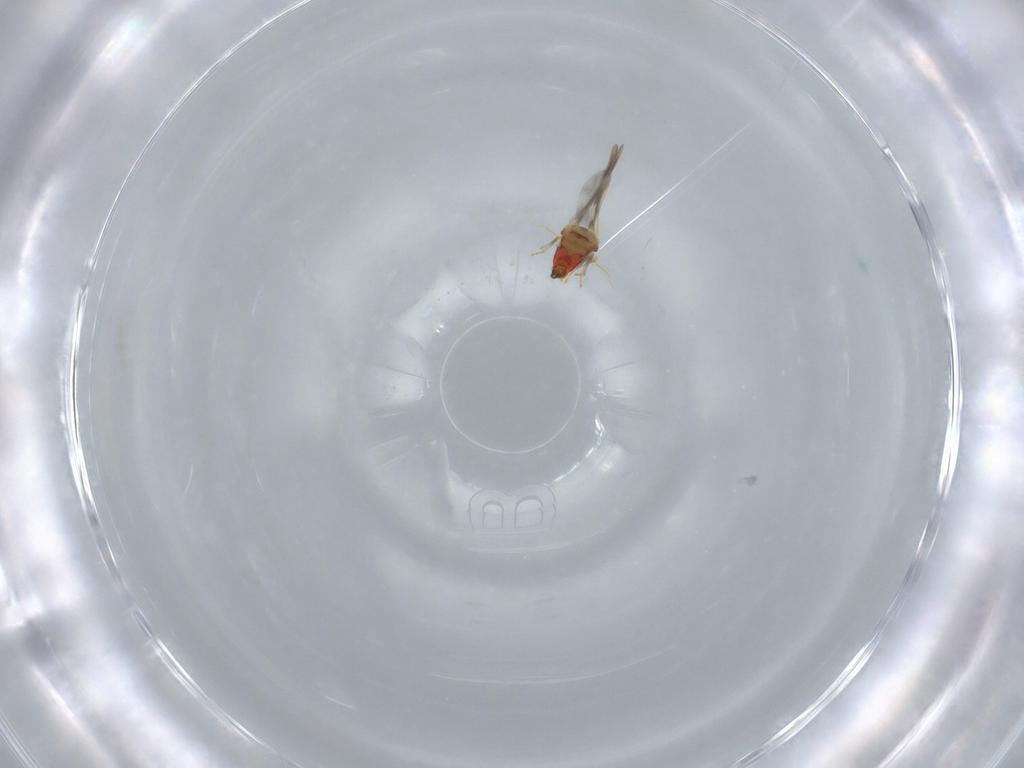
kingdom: Animalia
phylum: Arthropoda
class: Insecta
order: Hemiptera
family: Aleyrodidae
